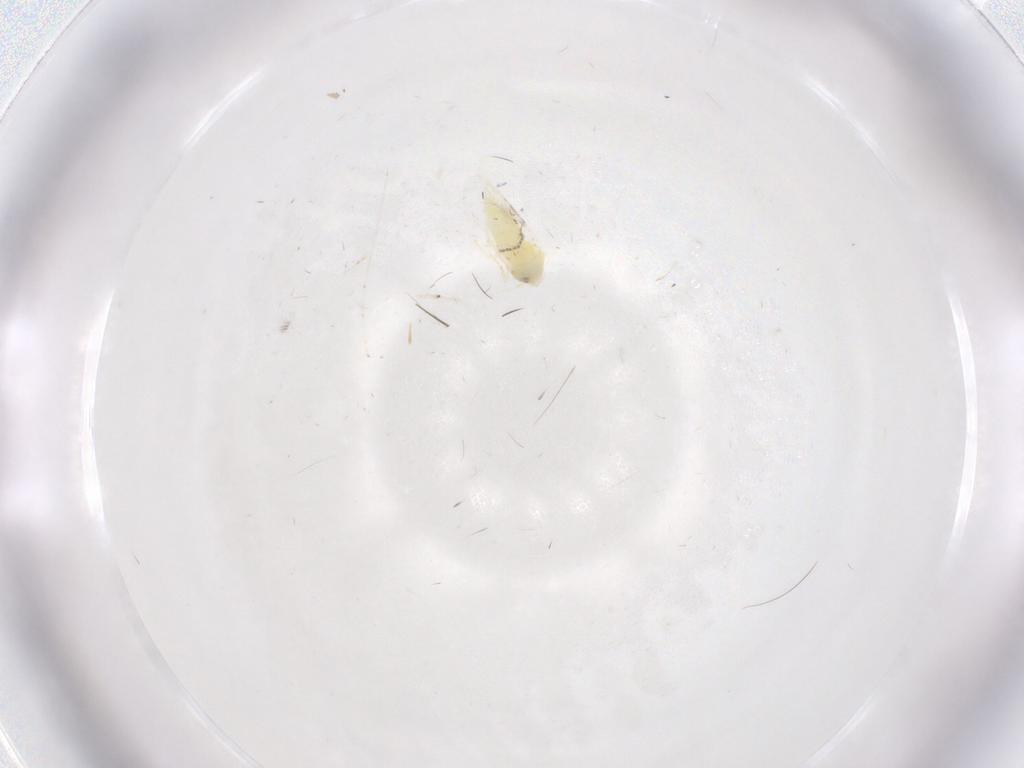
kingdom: Animalia
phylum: Arthropoda
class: Insecta
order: Hemiptera
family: Aleyrodidae
